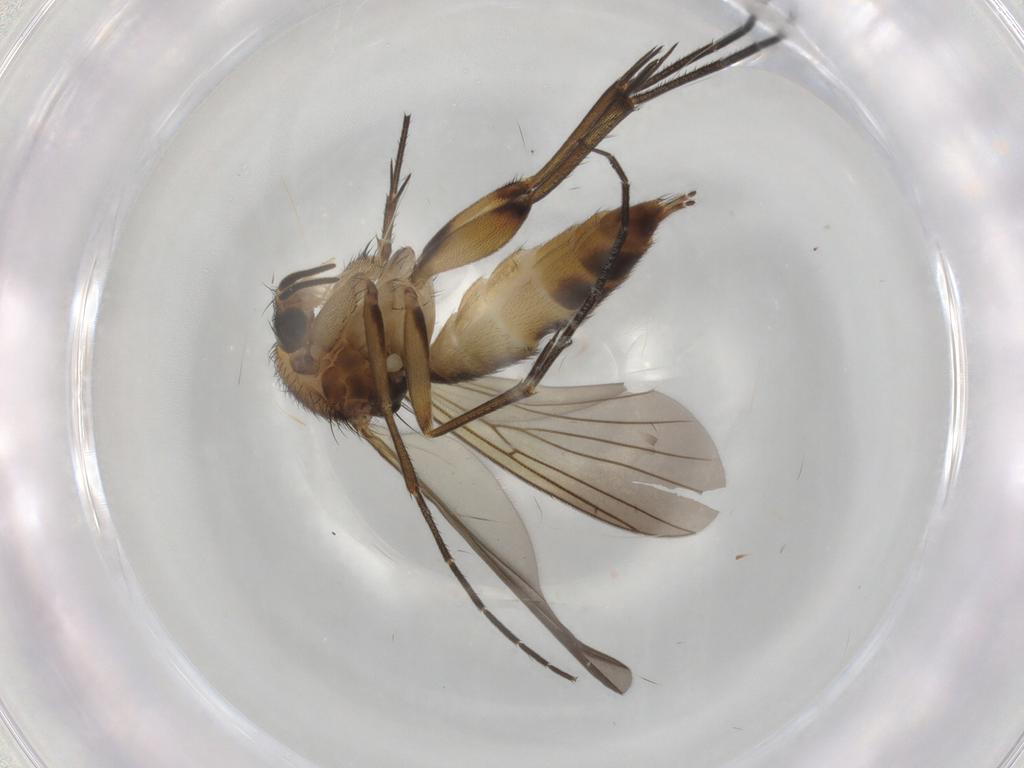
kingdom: Animalia
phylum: Arthropoda
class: Insecta
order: Diptera
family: Mycetophilidae
